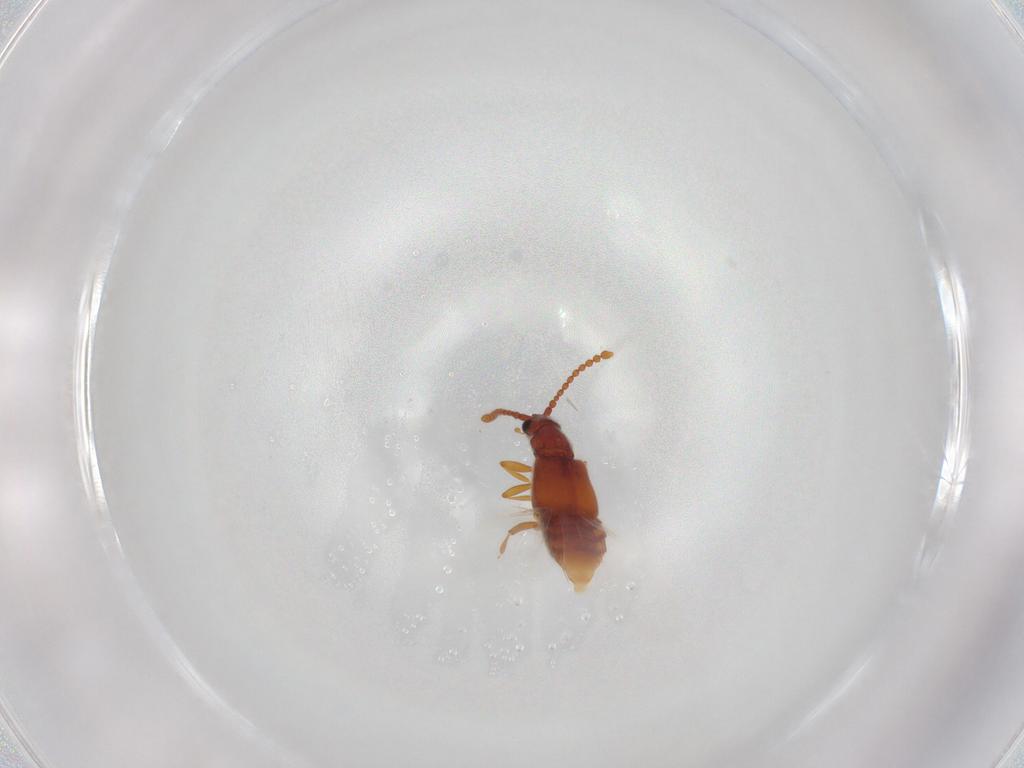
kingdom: Animalia
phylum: Arthropoda
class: Insecta
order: Coleoptera
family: Staphylinidae
